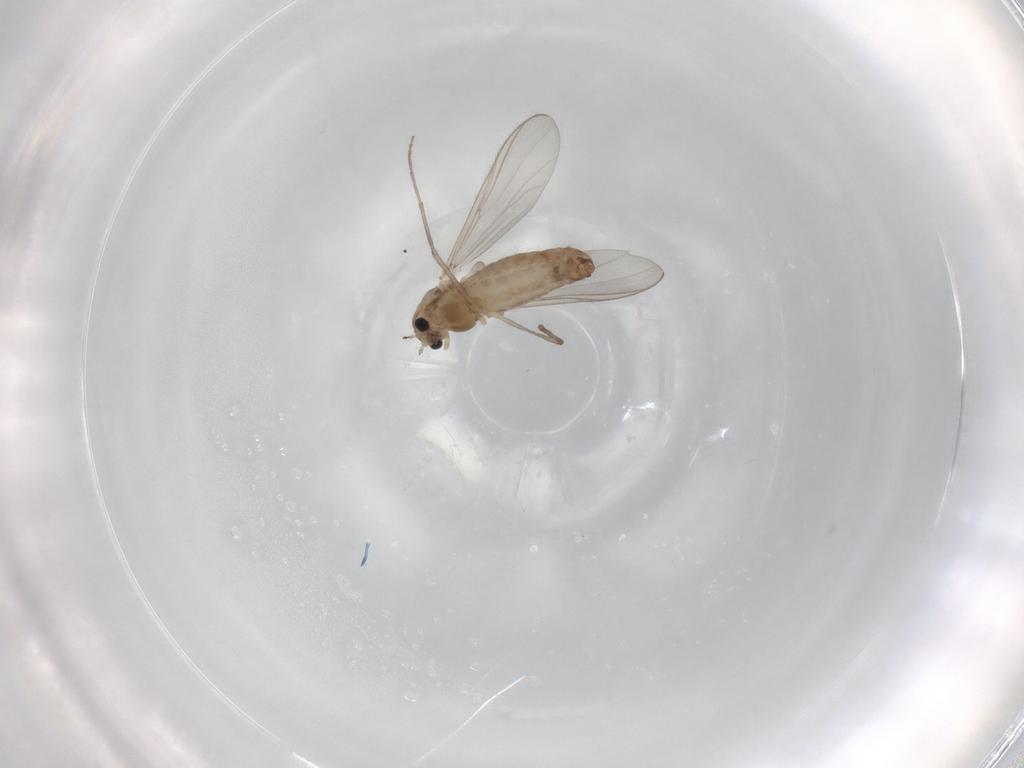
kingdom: Animalia
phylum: Arthropoda
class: Insecta
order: Diptera
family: Chironomidae
